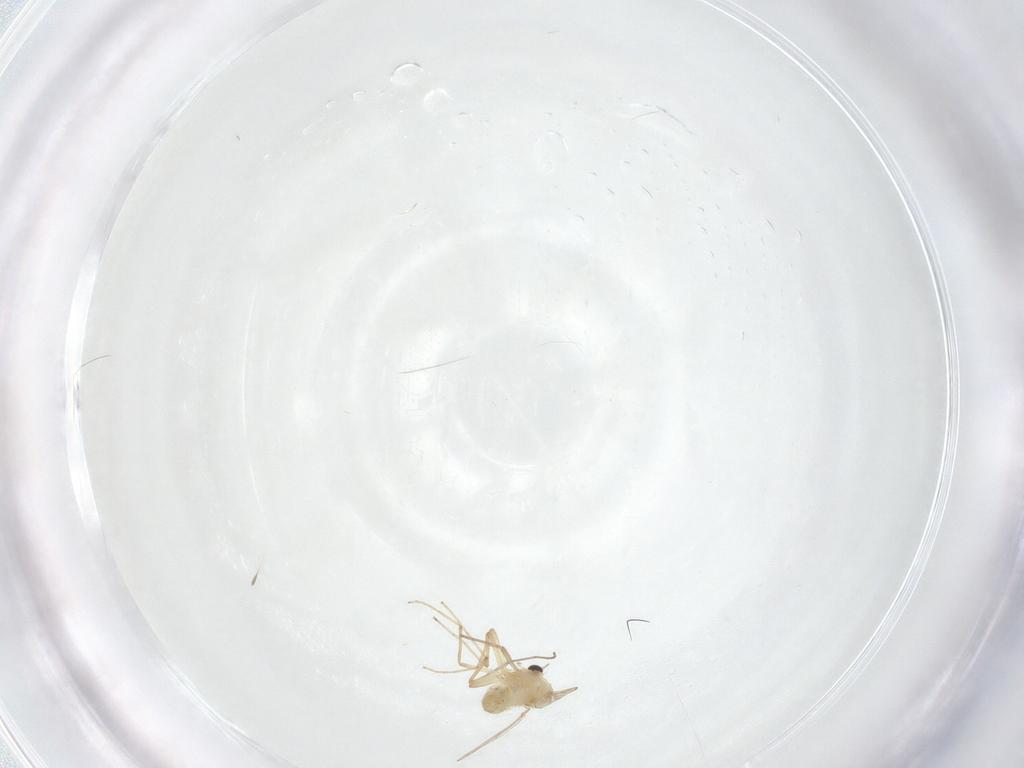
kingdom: Animalia
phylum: Arthropoda
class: Insecta
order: Diptera
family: Chironomidae
